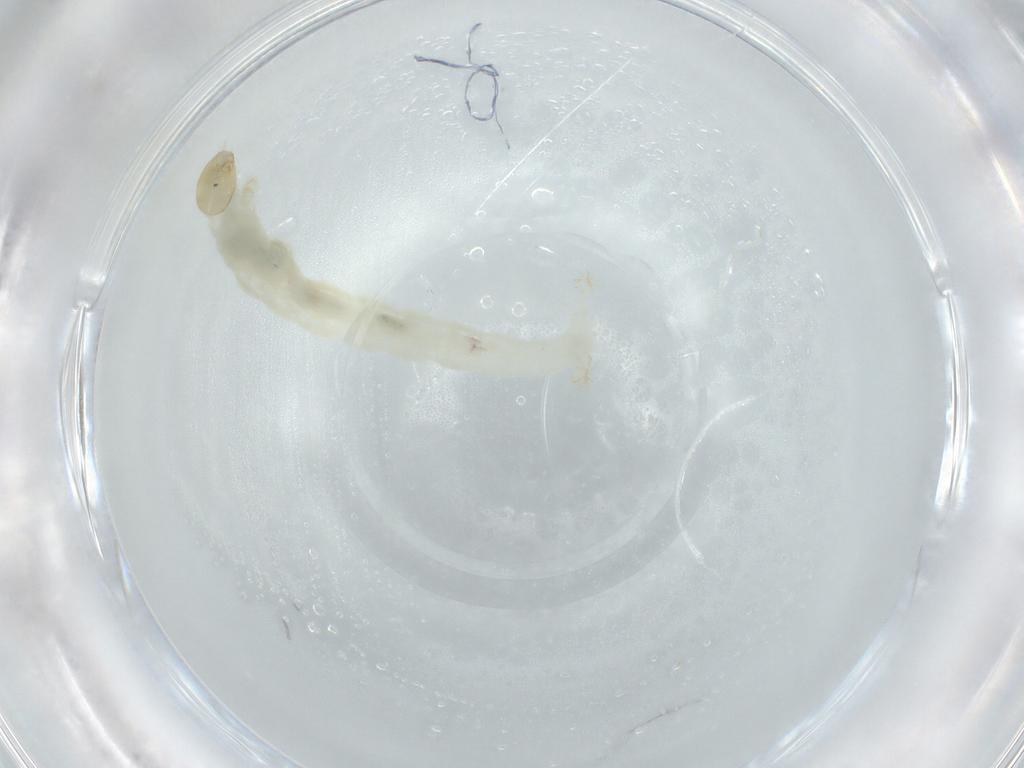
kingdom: Animalia
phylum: Arthropoda
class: Insecta
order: Diptera
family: Chironomidae
